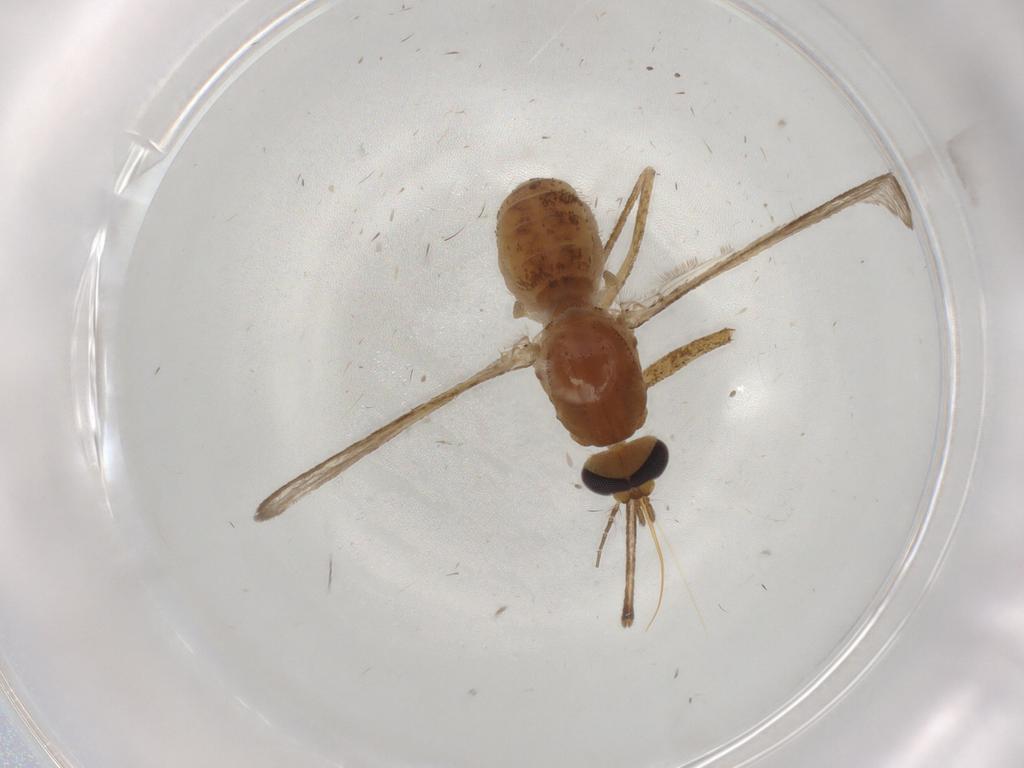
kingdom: Animalia
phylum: Arthropoda
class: Insecta
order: Diptera
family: Culicidae
